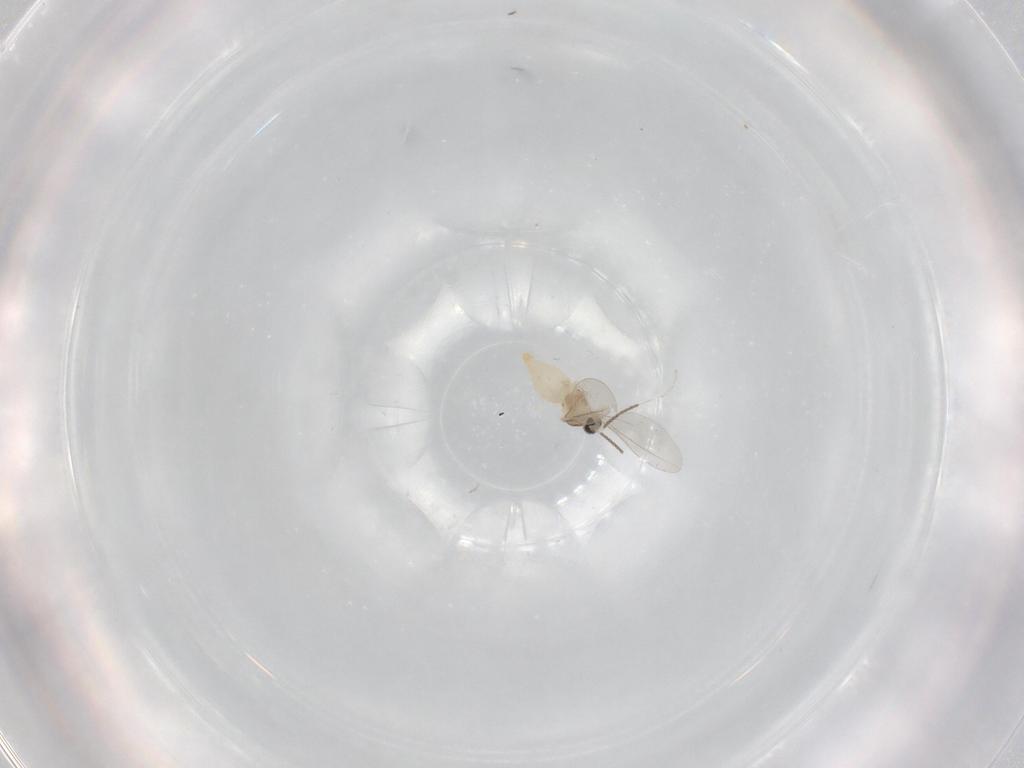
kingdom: Animalia
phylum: Arthropoda
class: Insecta
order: Diptera
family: Cecidomyiidae
